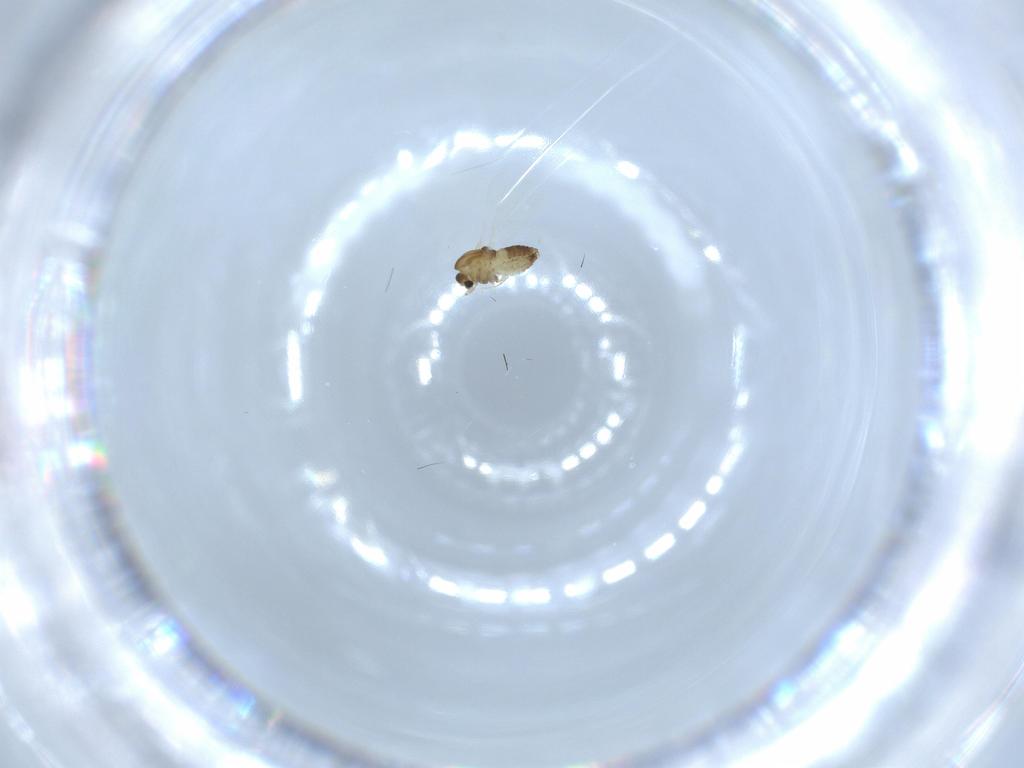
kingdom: Animalia
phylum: Arthropoda
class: Insecta
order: Diptera
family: Chironomidae
